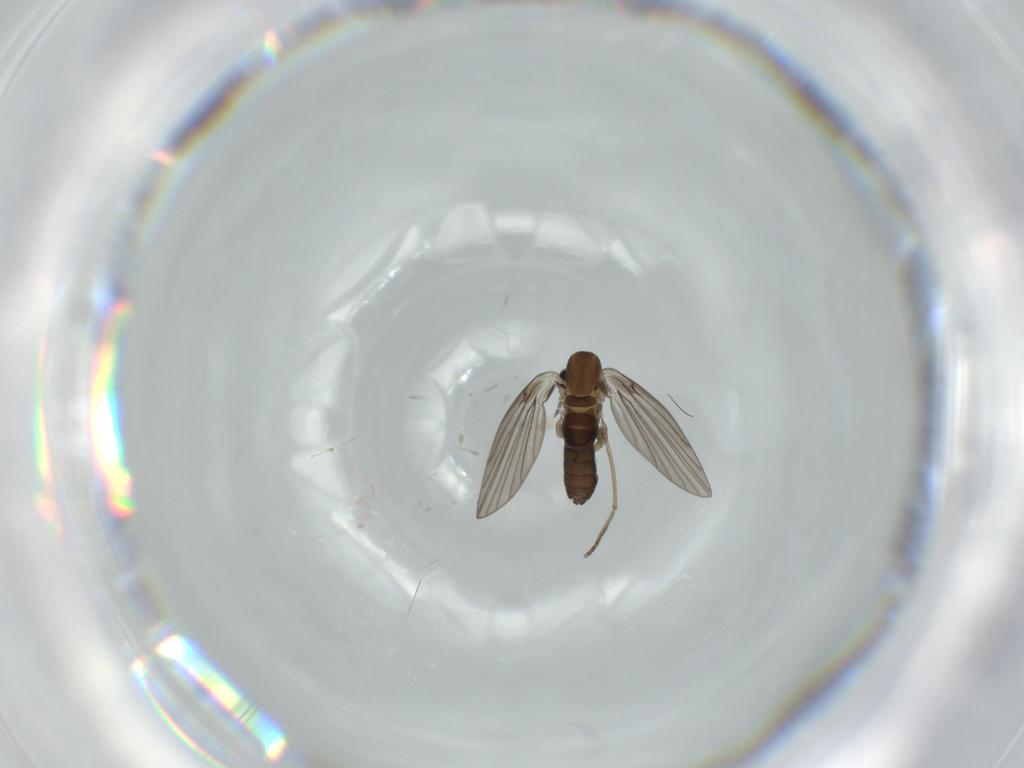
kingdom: Animalia
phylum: Arthropoda
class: Insecta
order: Diptera
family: Psychodidae
